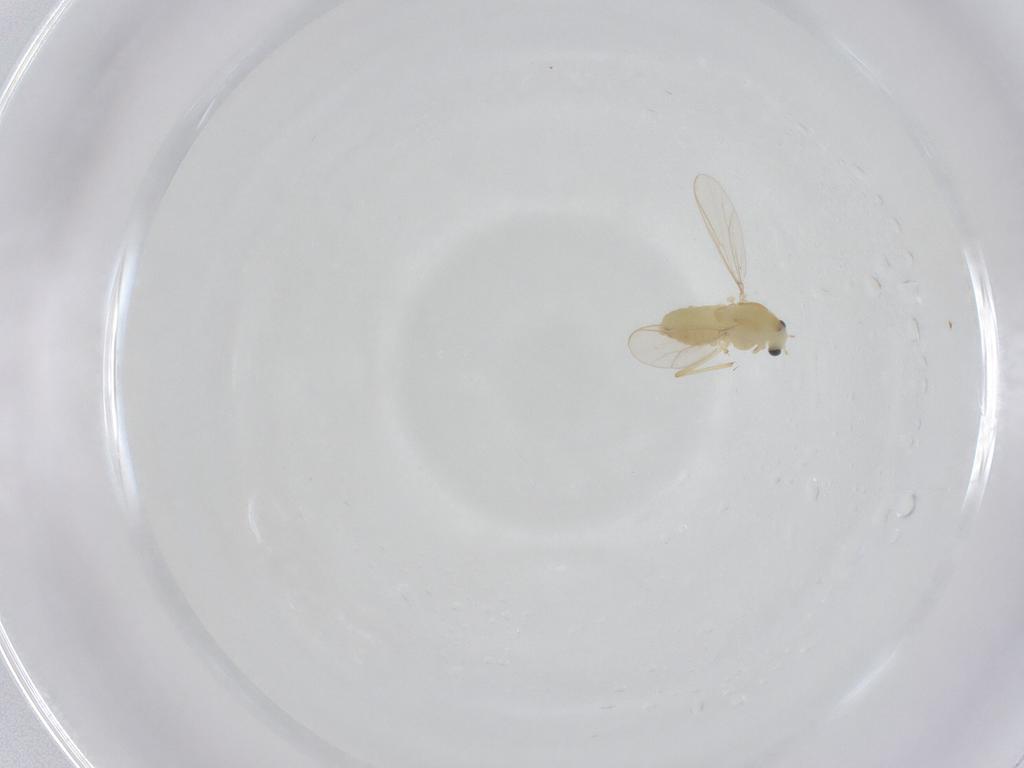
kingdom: Animalia
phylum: Arthropoda
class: Insecta
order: Diptera
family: Chironomidae
